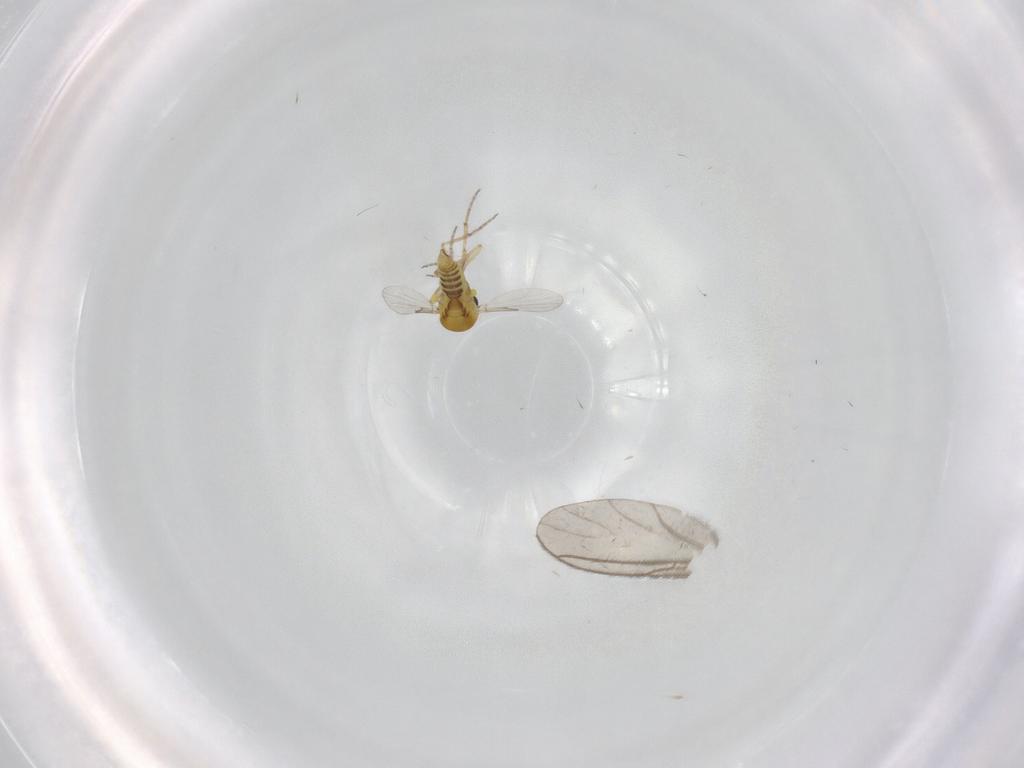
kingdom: Animalia
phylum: Arthropoda
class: Insecta
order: Diptera
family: Ceratopogonidae
